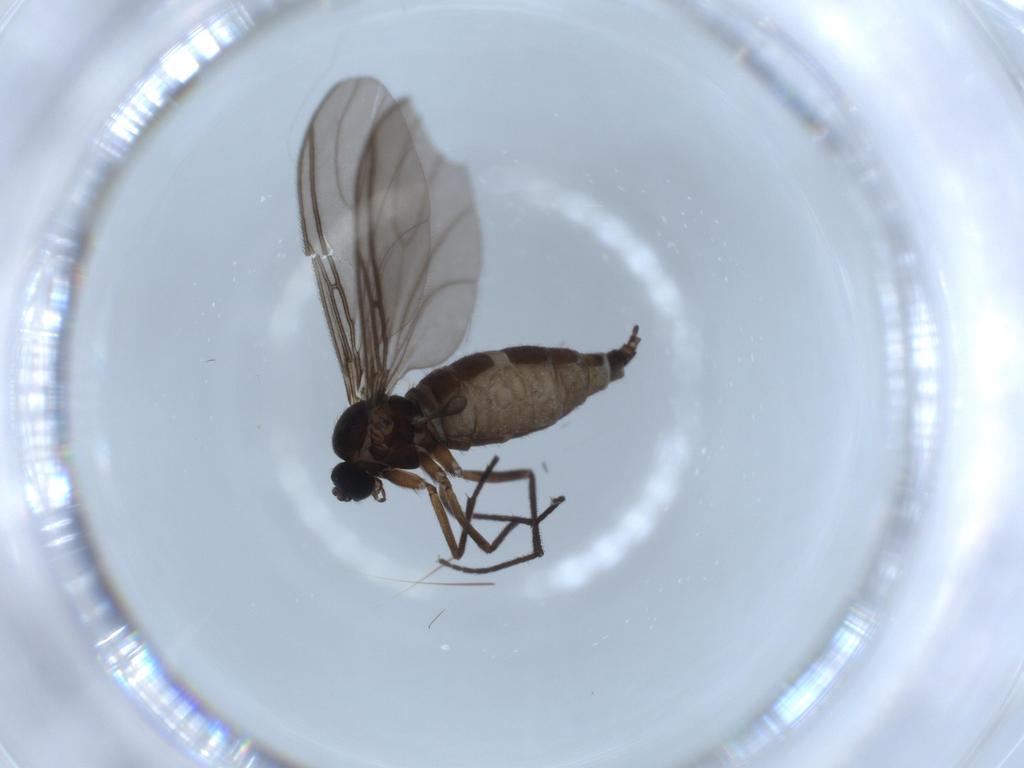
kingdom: Animalia
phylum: Arthropoda
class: Insecta
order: Diptera
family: Sciaridae
